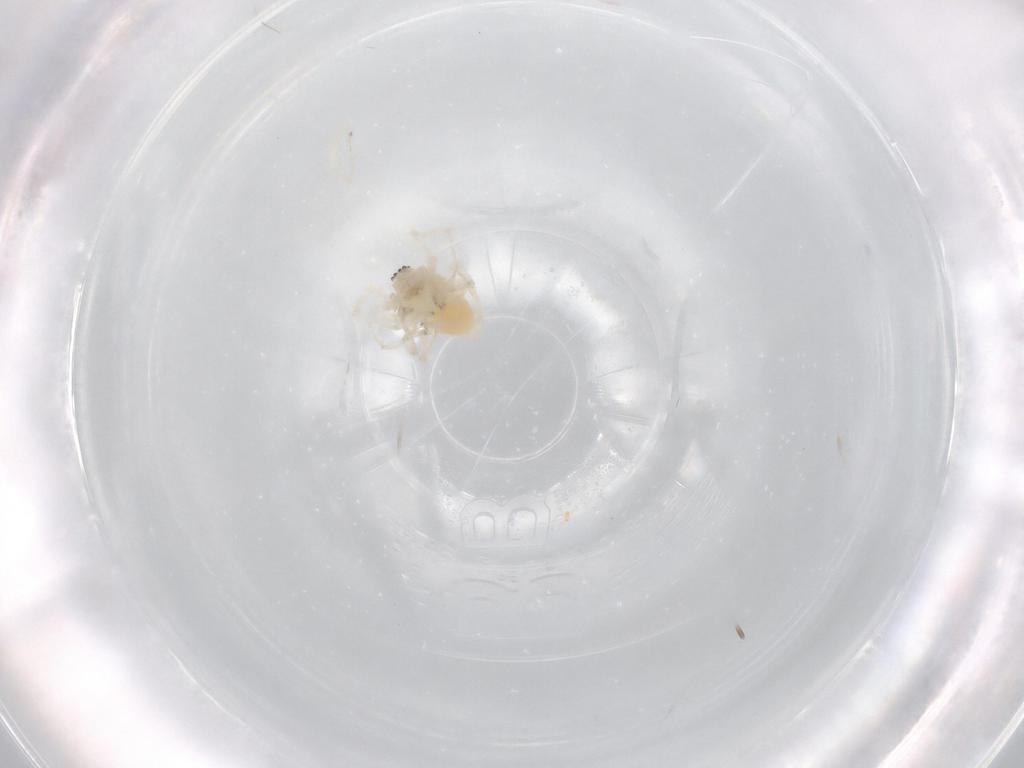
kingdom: Animalia
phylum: Arthropoda
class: Arachnida
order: Araneae
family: Anyphaenidae
